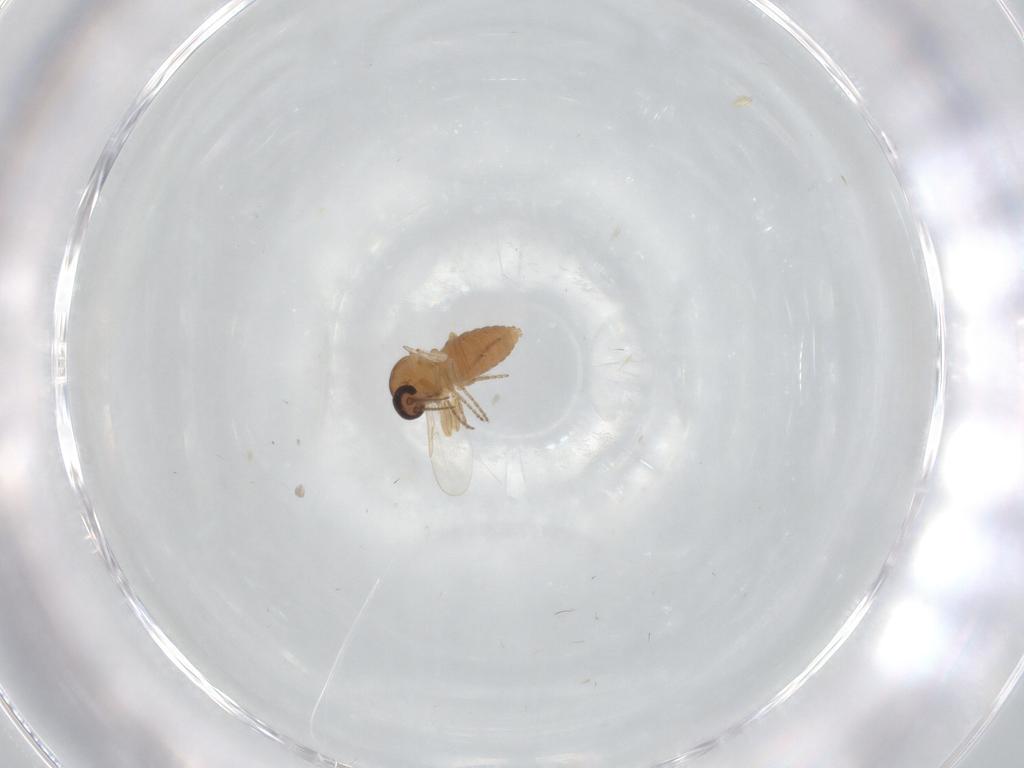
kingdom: Animalia
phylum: Arthropoda
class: Insecta
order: Diptera
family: Ceratopogonidae
